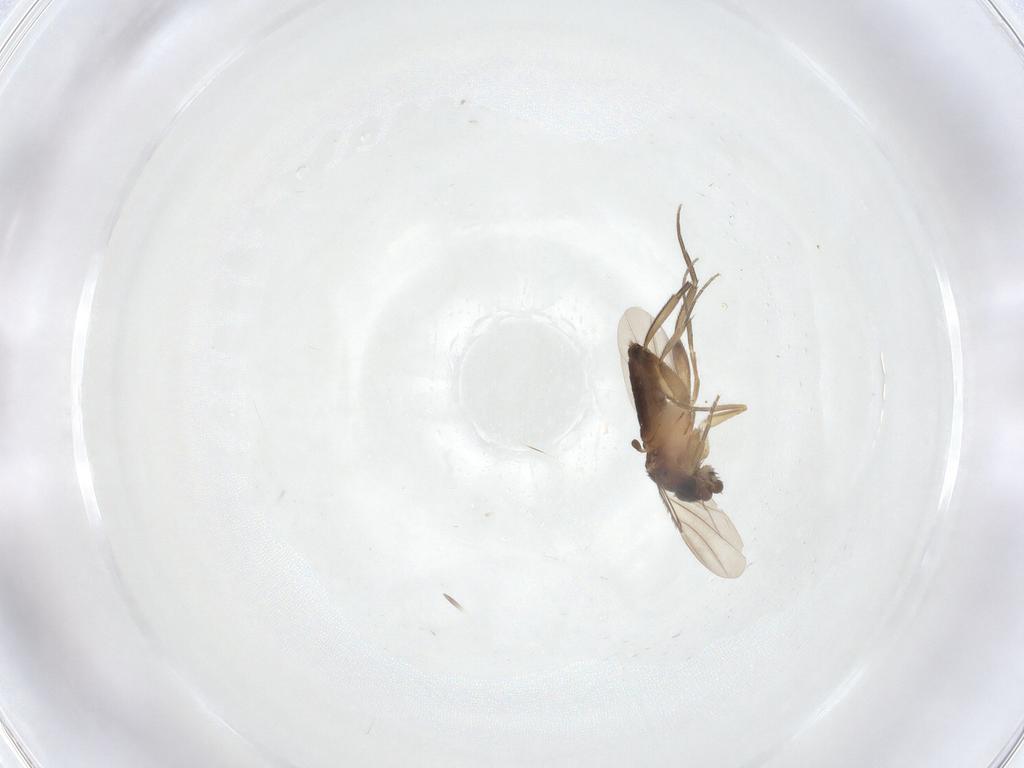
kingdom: Animalia
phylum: Arthropoda
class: Insecta
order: Diptera
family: Phoridae
